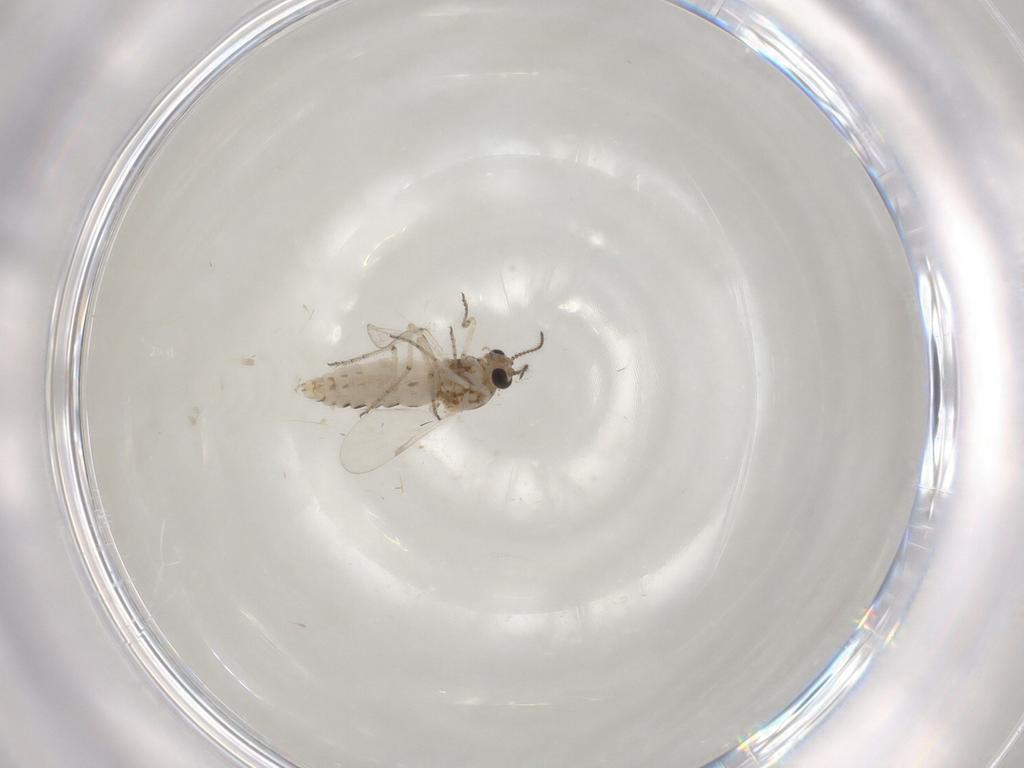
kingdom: Animalia
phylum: Arthropoda
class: Insecta
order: Diptera
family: Ceratopogonidae
